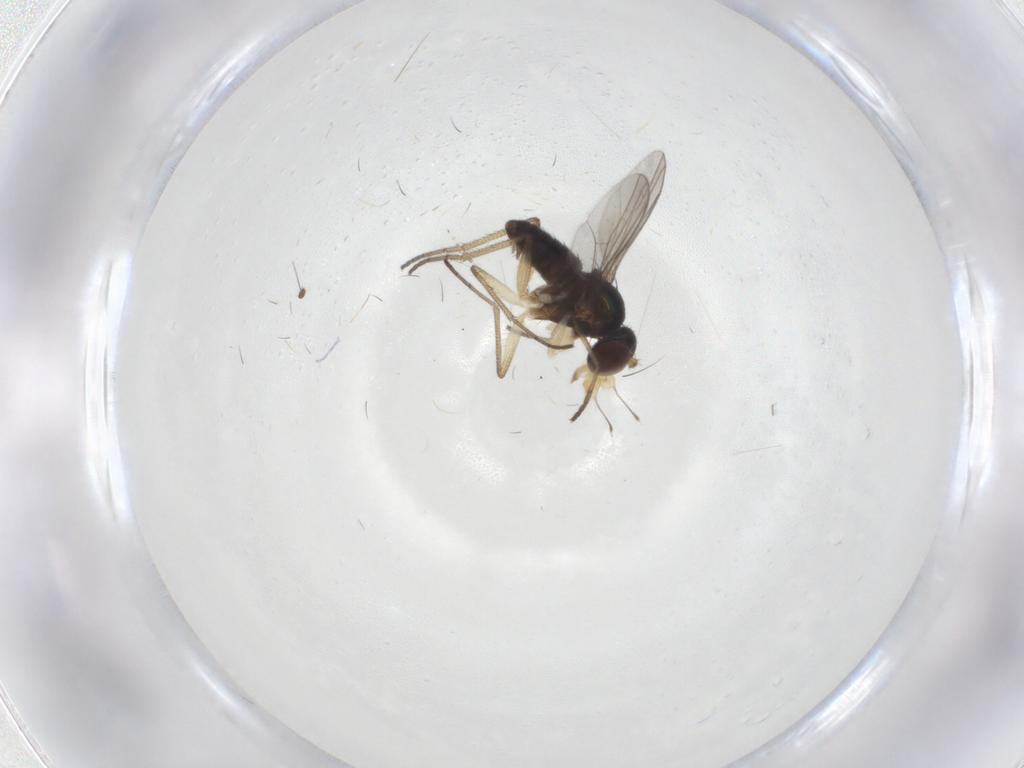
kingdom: Animalia
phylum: Arthropoda
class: Insecta
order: Diptera
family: Dolichopodidae
